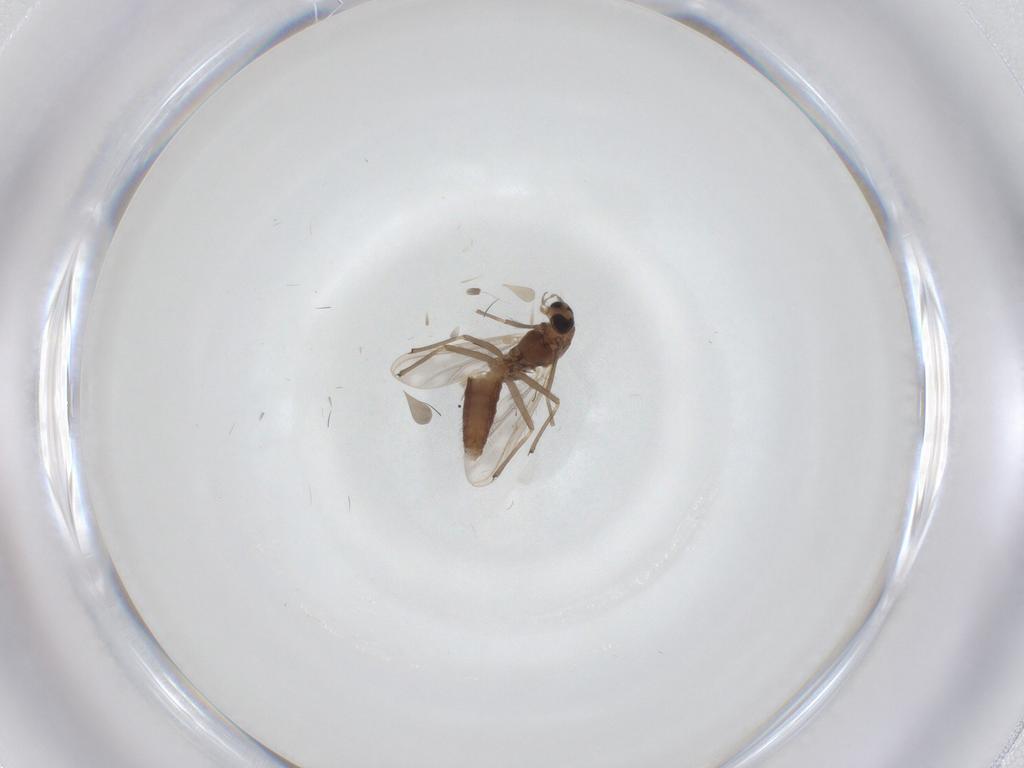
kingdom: Animalia
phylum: Arthropoda
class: Insecta
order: Diptera
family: Chironomidae
